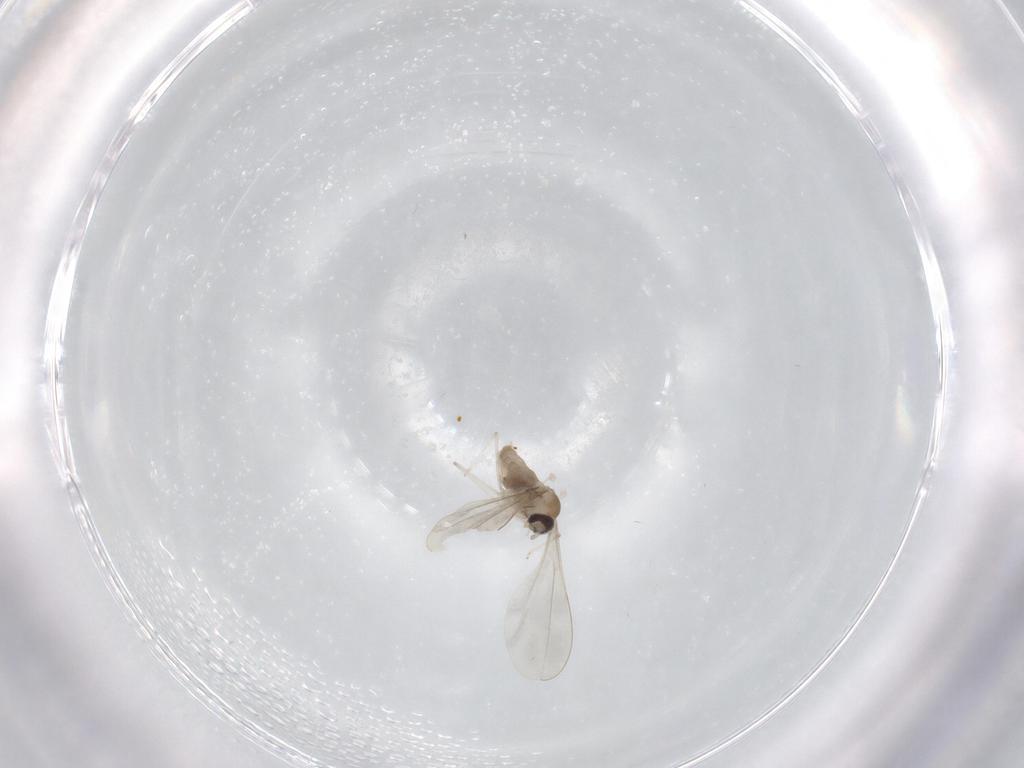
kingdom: Animalia
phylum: Arthropoda
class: Insecta
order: Diptera
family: Cecidomyiidae
